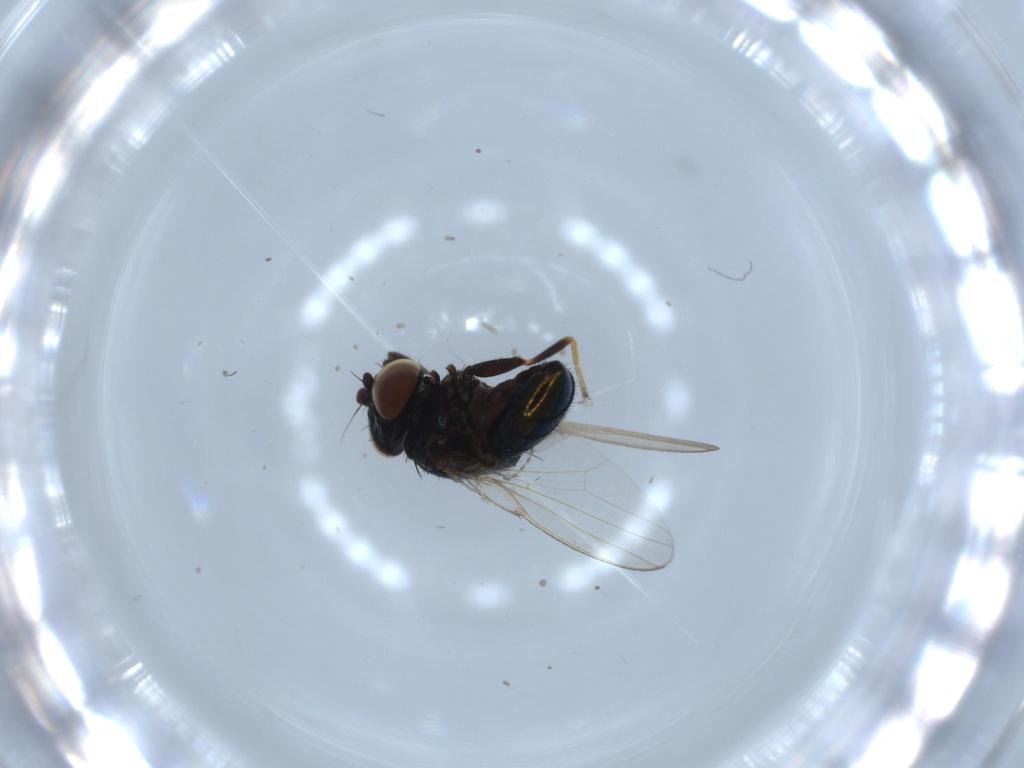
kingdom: Animalia
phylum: Arthropoda
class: Insecta
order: Diptera
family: Milichiidae
